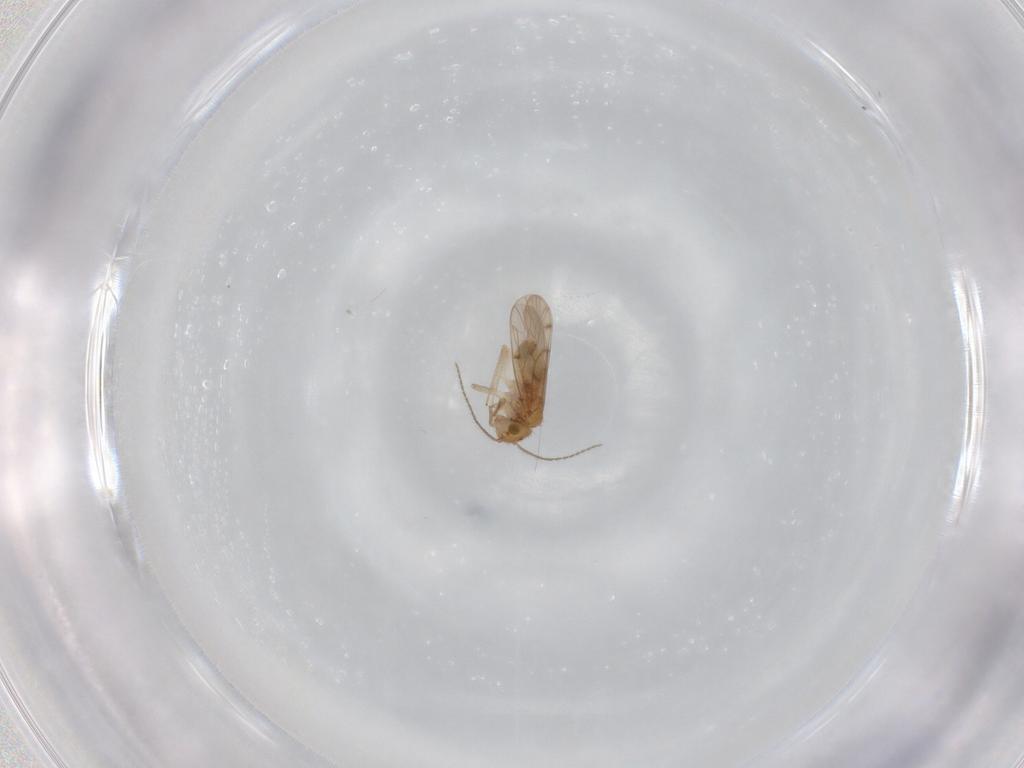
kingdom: Animalia
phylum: Arthropoda
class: Insecta
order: Psocodea
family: Ectopsocidae
